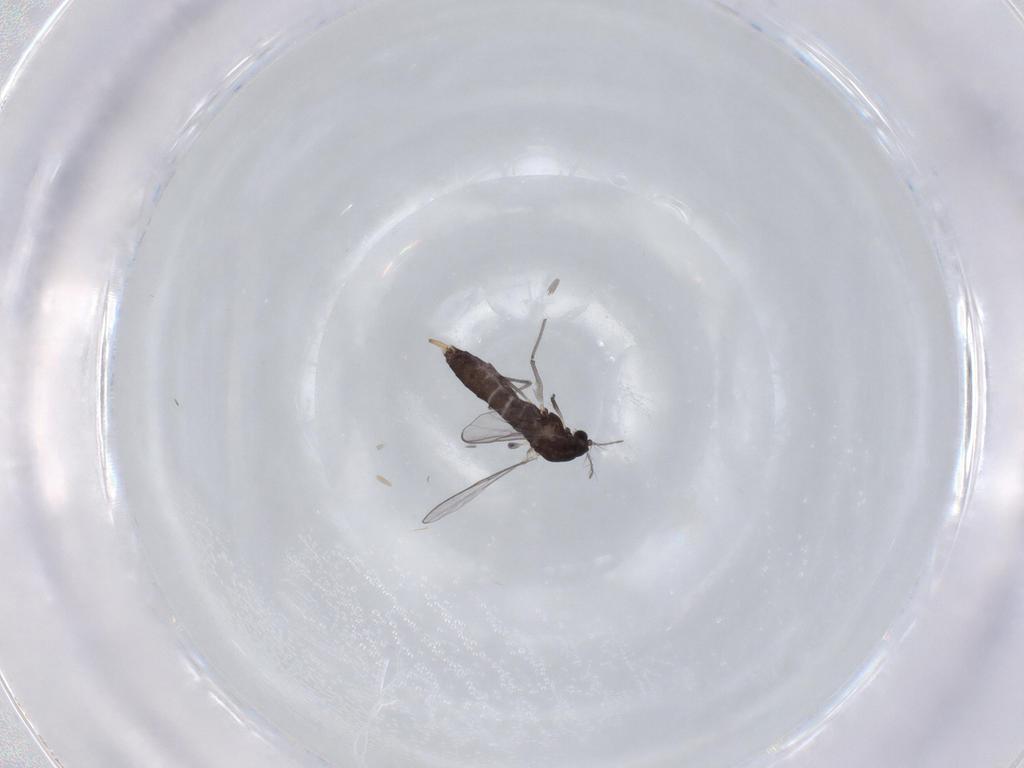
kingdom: Animalia
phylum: Arthropoda
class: Insecta
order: Diptera
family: Chironomidae
